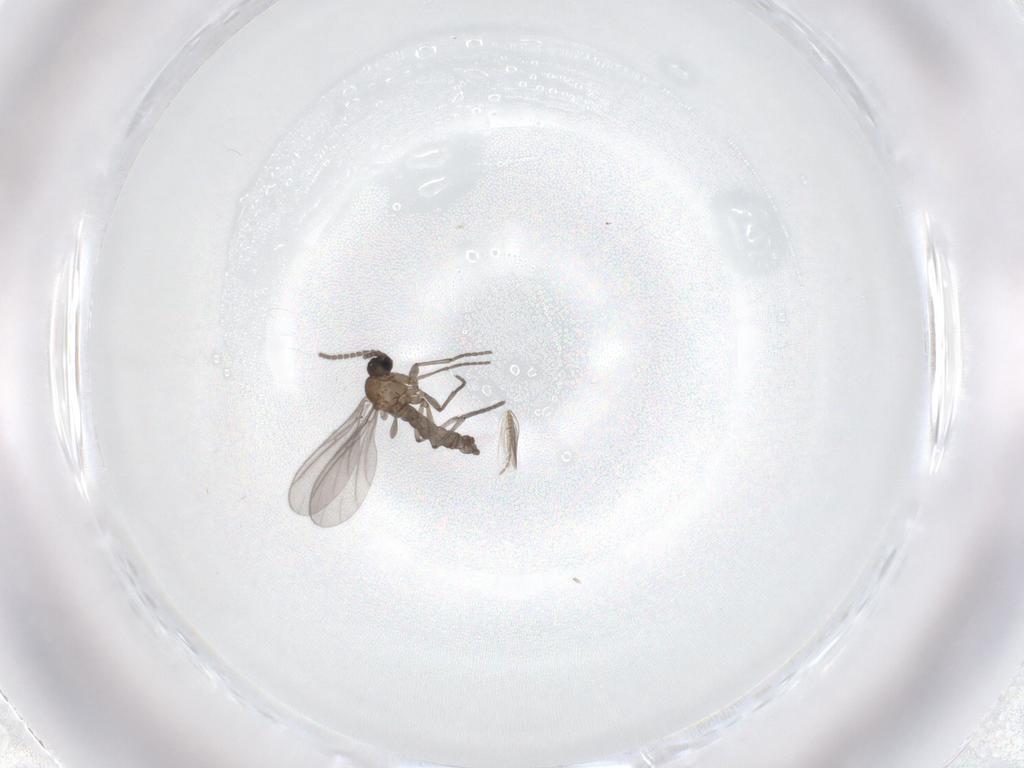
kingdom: Animalia
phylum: Arthropoda
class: Insecta
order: Diptera
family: Sciaridae
